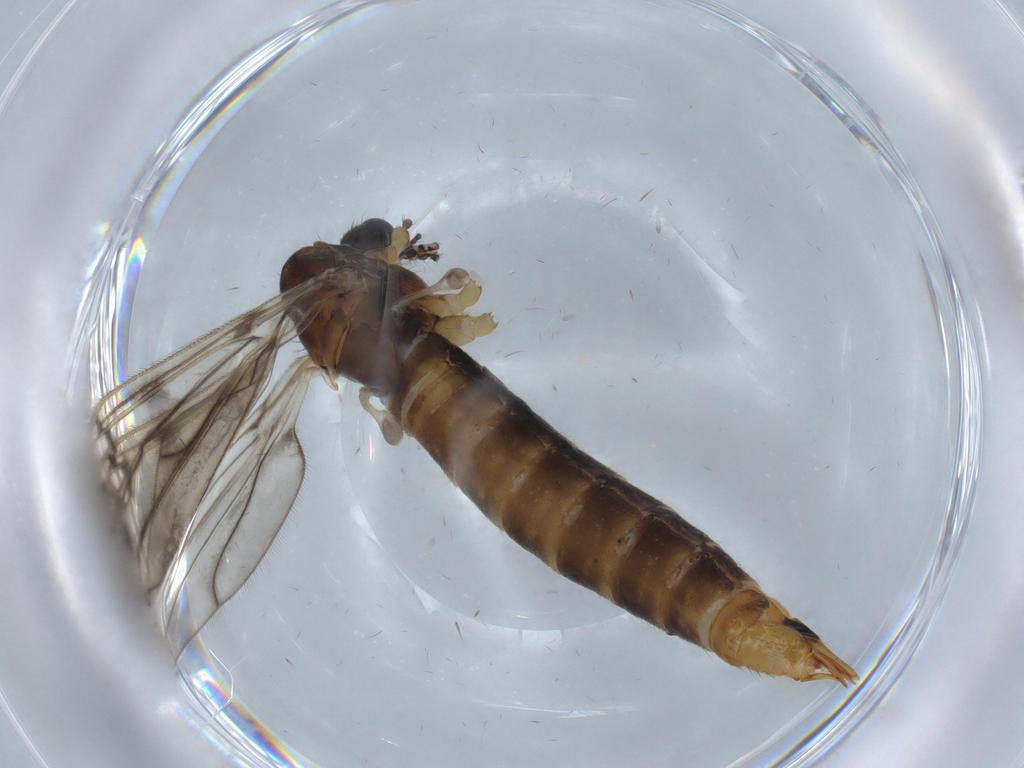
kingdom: Animalia
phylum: Arthropoda
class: Insecta
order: Diptera
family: Limoniidae
